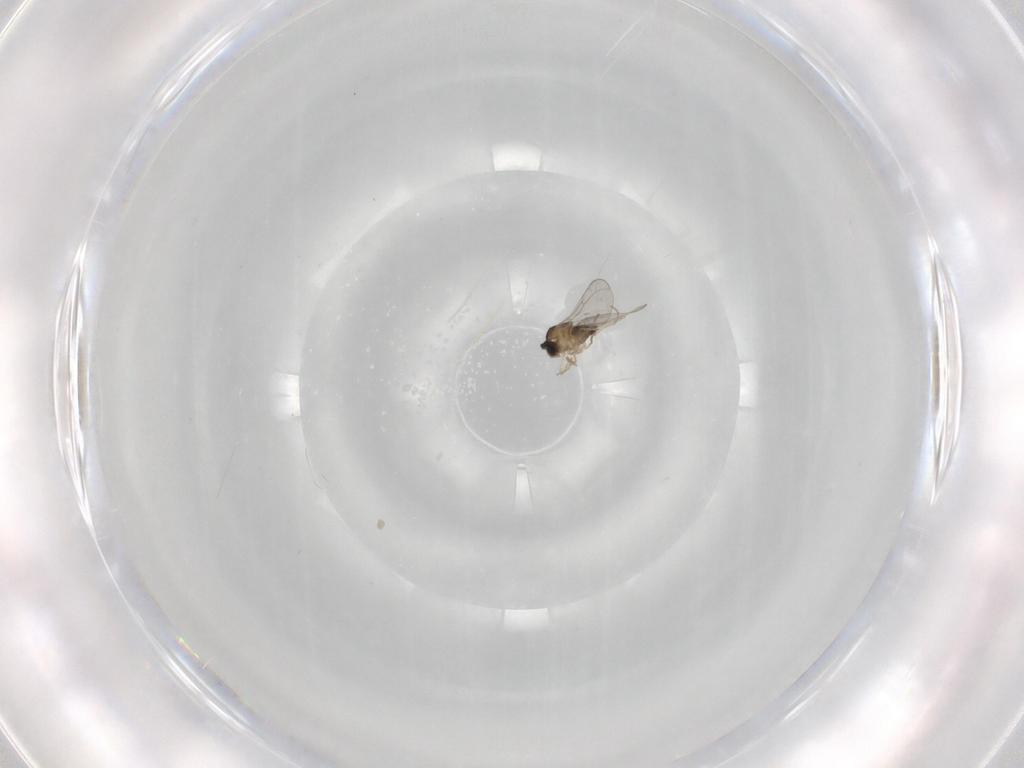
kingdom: Animalia
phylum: Arthropoda
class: Insecta
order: Diptera
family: Cecidomyiidae
